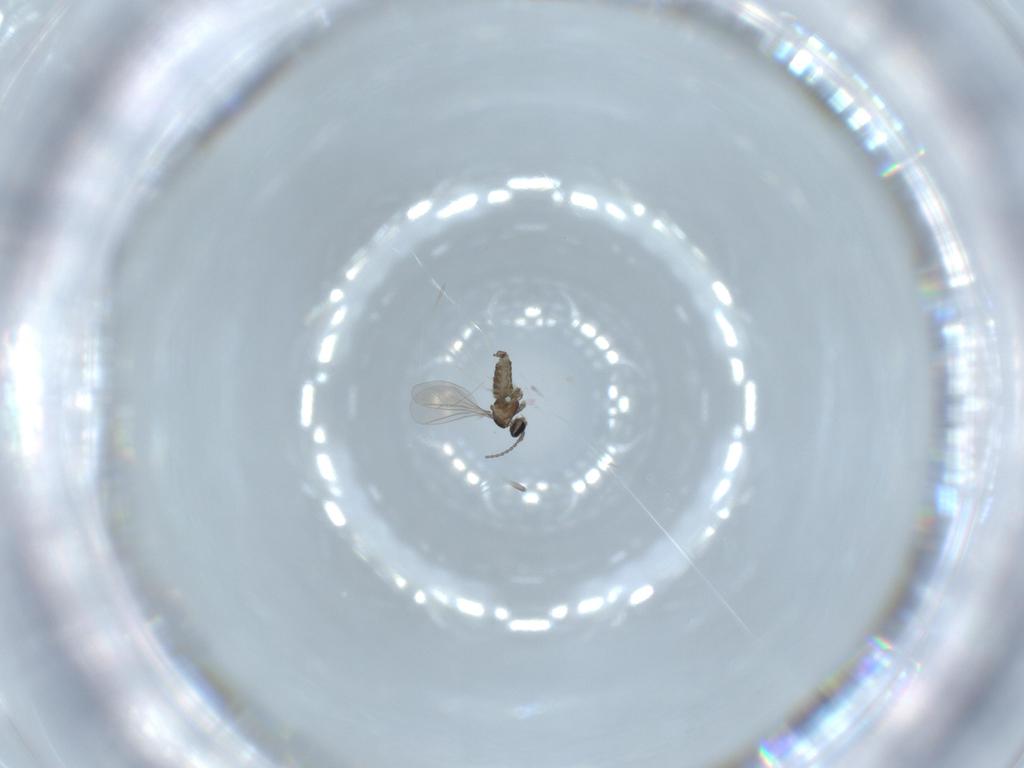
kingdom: Animalia
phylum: Arthropoda
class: Insecta
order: Diptera
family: Cecidomyiidae
